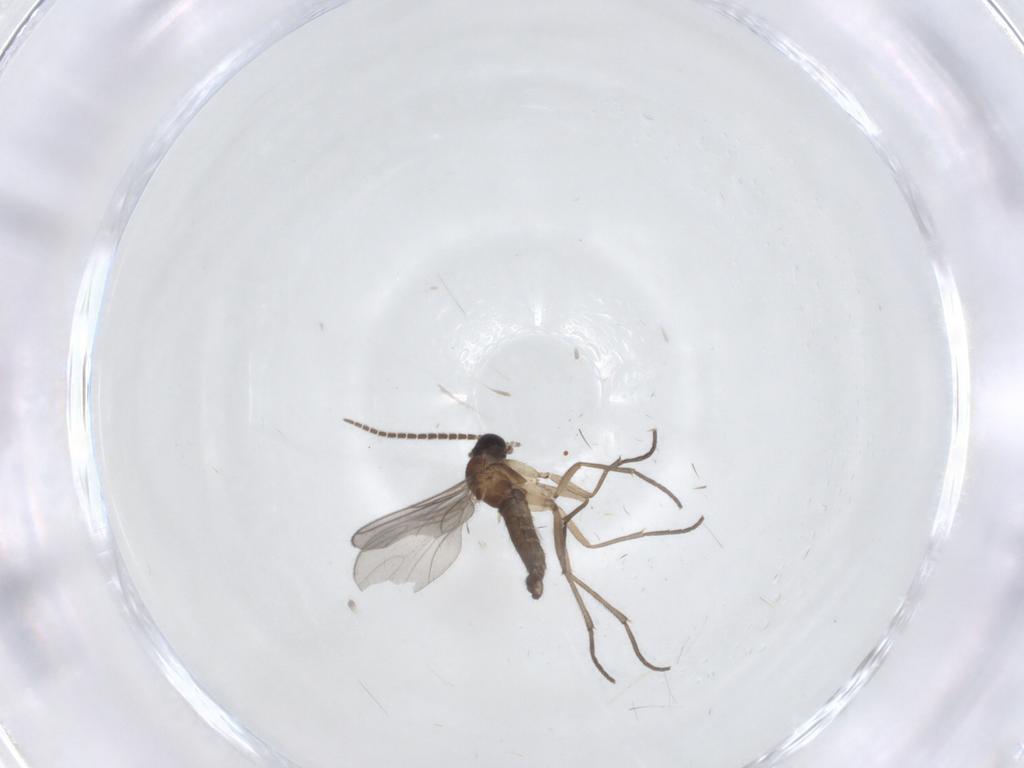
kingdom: Animalia
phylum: Arthropoda
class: Insecta
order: Diptera
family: Sciaridae
